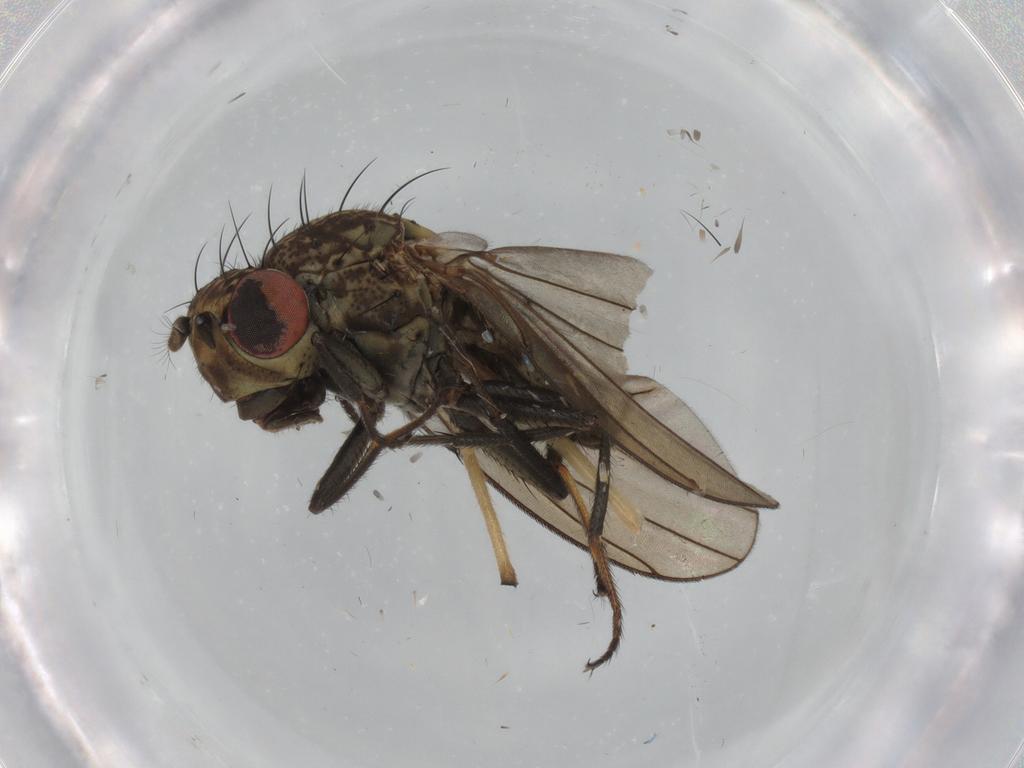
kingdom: Animalia
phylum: Arthropoda
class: Insecta
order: Diptera
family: Ephydridae
